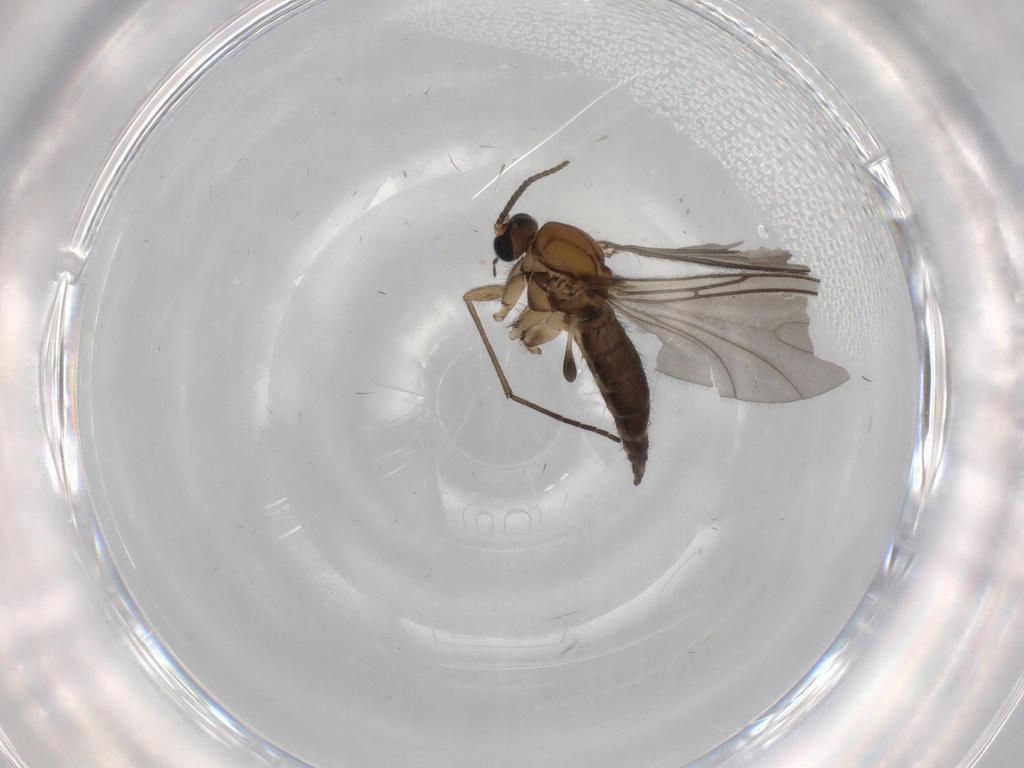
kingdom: Animalia
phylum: Arthropoda
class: Insecta
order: Diptera
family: Sciaridae
